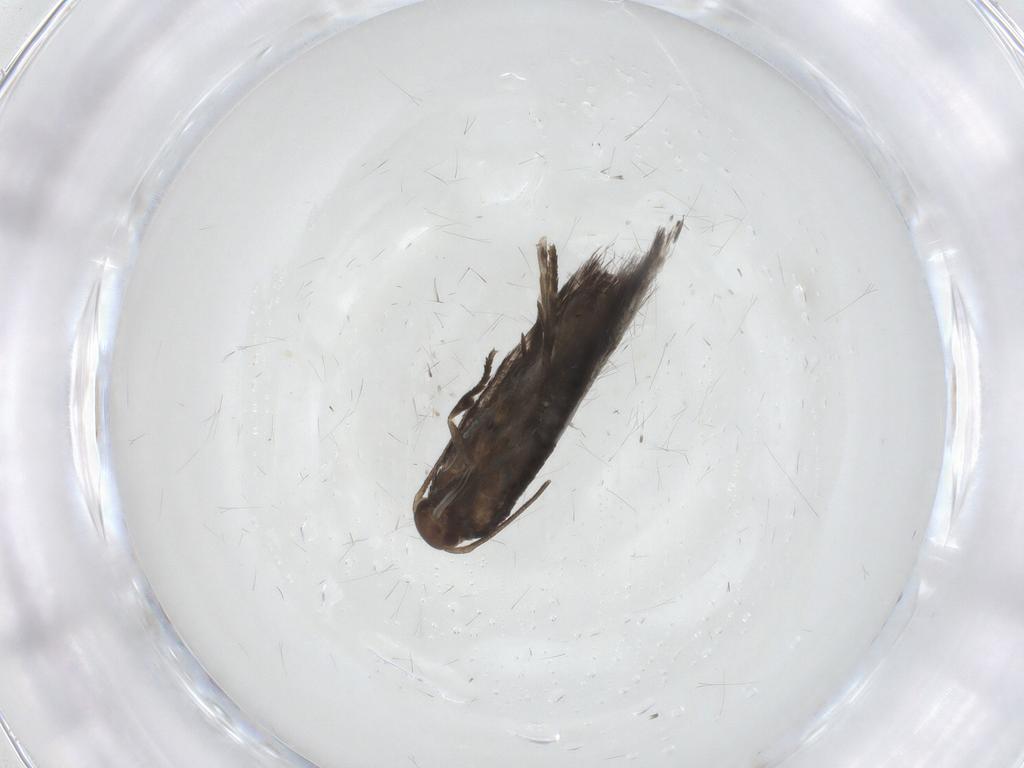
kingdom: Animalia
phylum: Arthropoda
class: Insecta
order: Lepidoptera
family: Elachistidae
